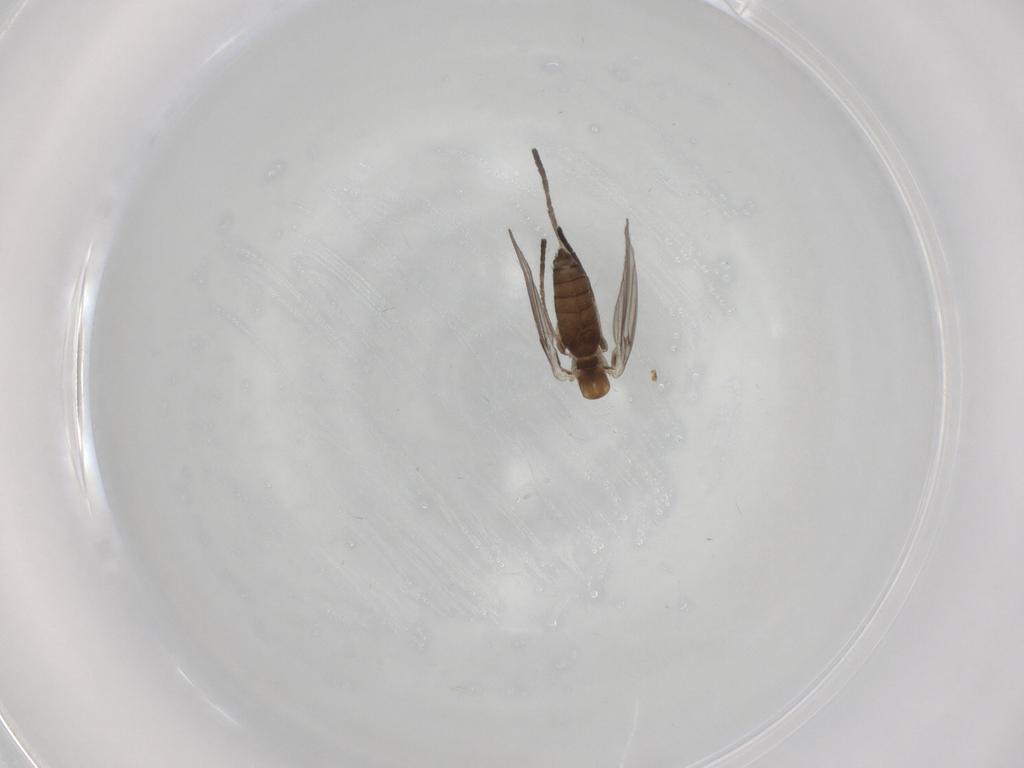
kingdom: Animalia
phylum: Arthropoda
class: Insecta
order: Diptera
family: Psychodidae
